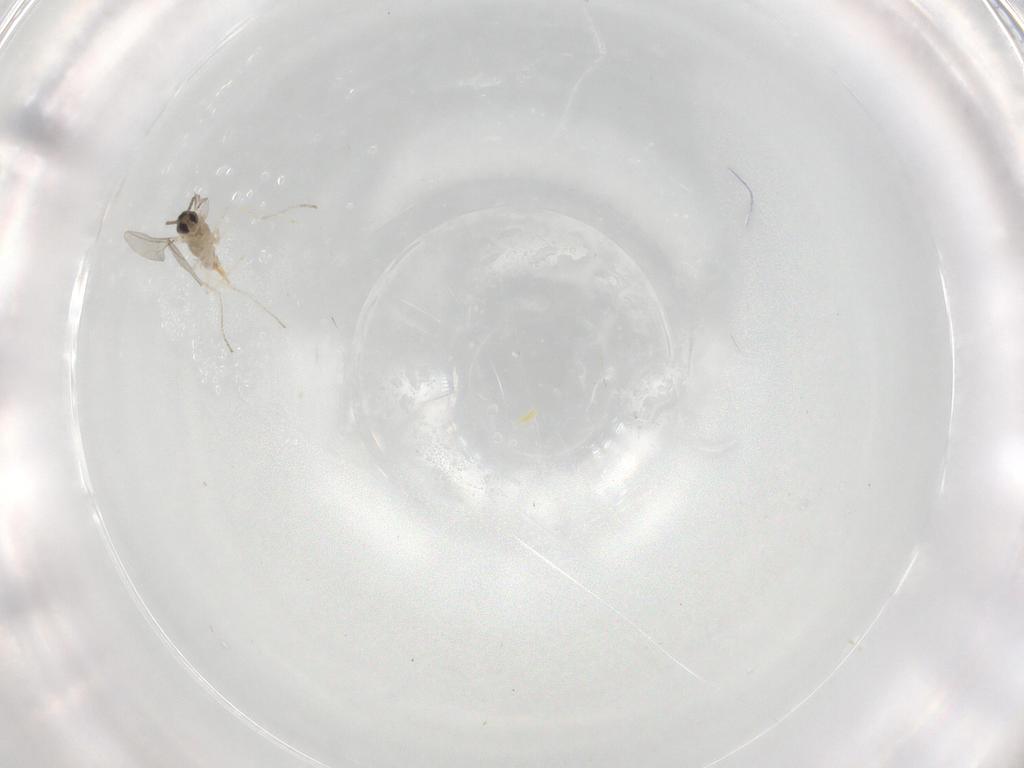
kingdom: Animalia
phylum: Arthropoda
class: Insecta
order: Diptera
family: Cecidomyiidae
